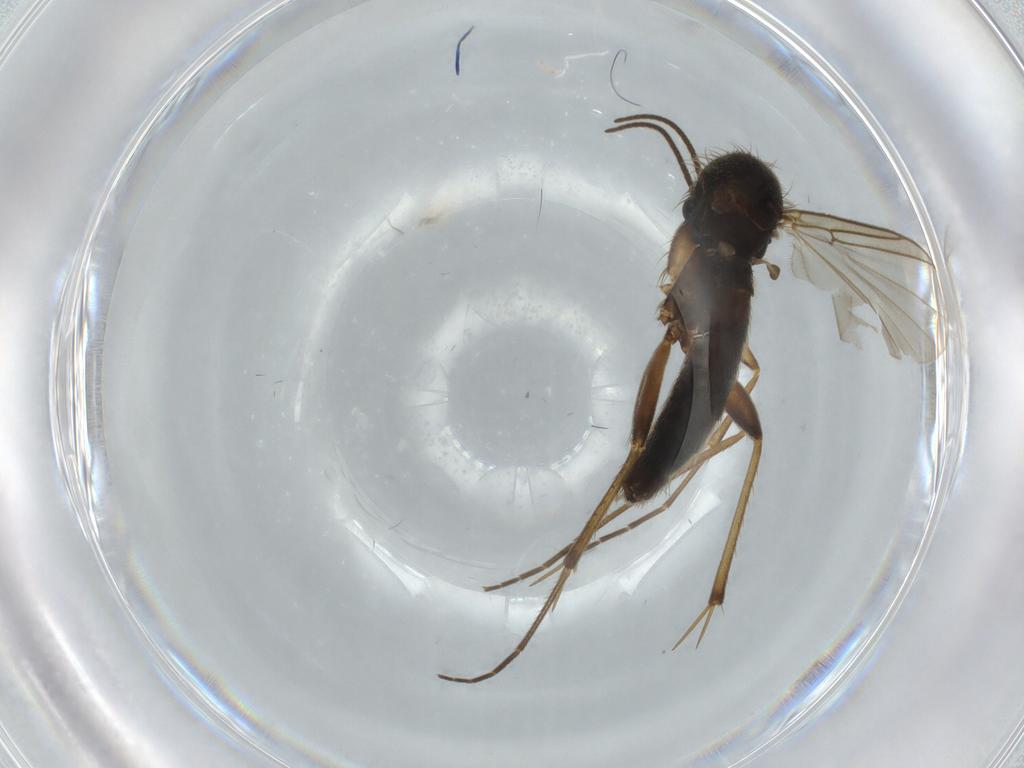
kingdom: Animalia
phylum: Arthropoda
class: Insecta
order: Diptera
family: Mycetophilidae
